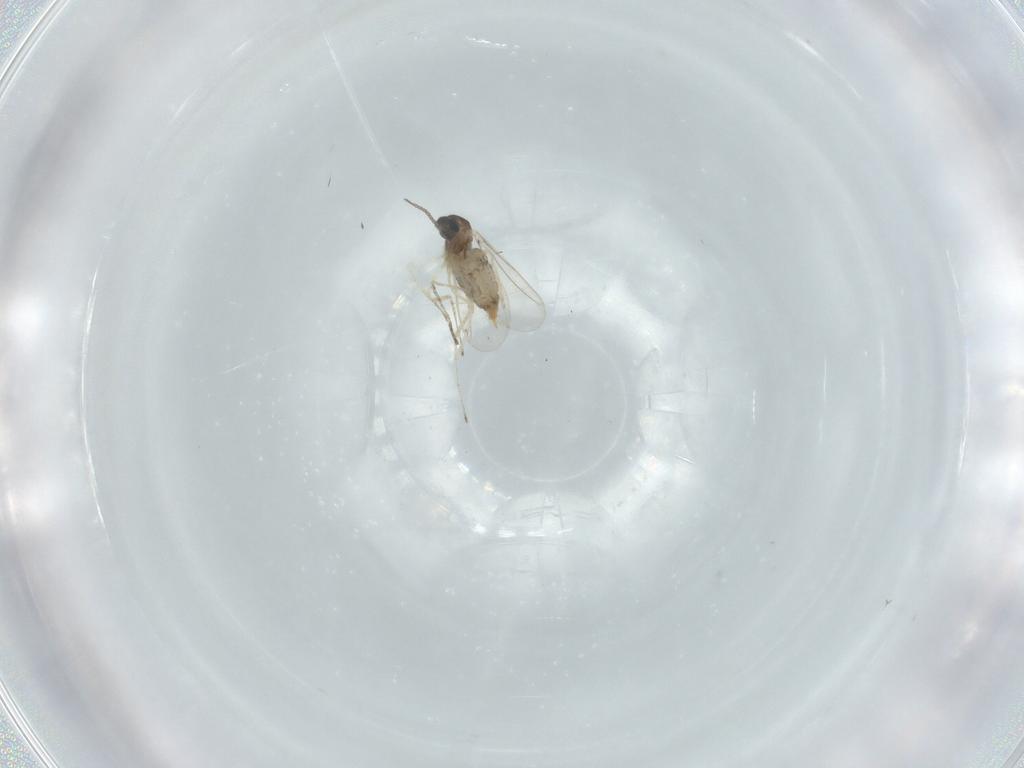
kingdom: Animalia
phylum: Arthropoda
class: Insecta
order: Diptera
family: Cecidomyiidae
